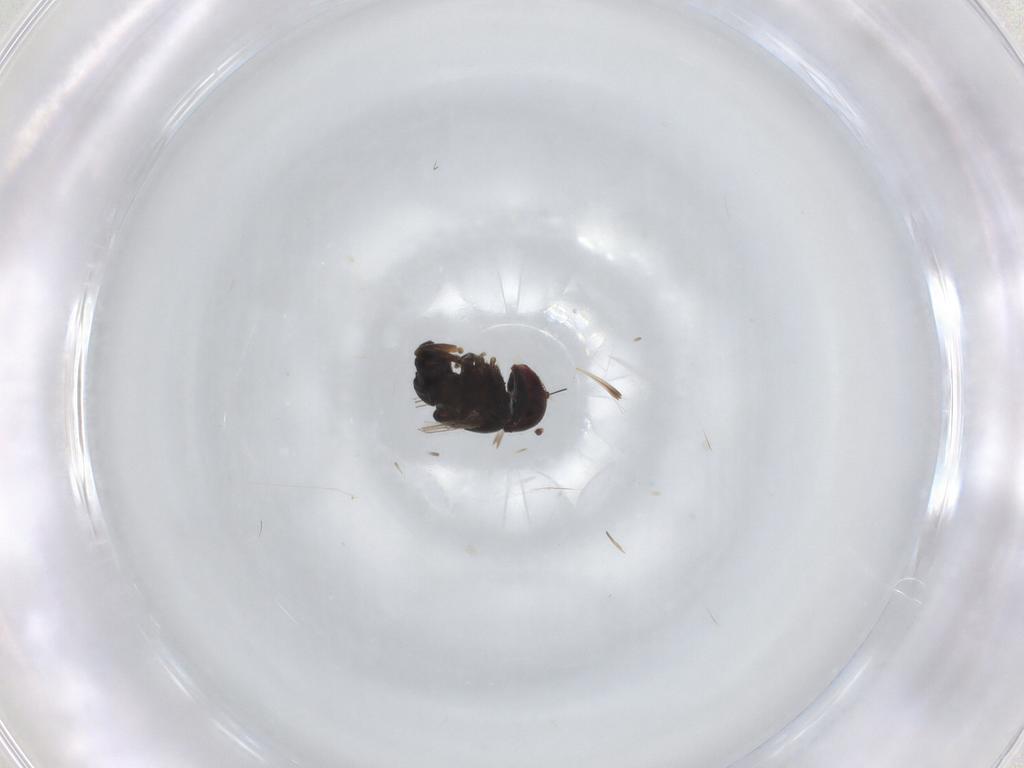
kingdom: Animalia
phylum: Arthropoda
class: Insecta
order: Diptera
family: Pipunculidae
